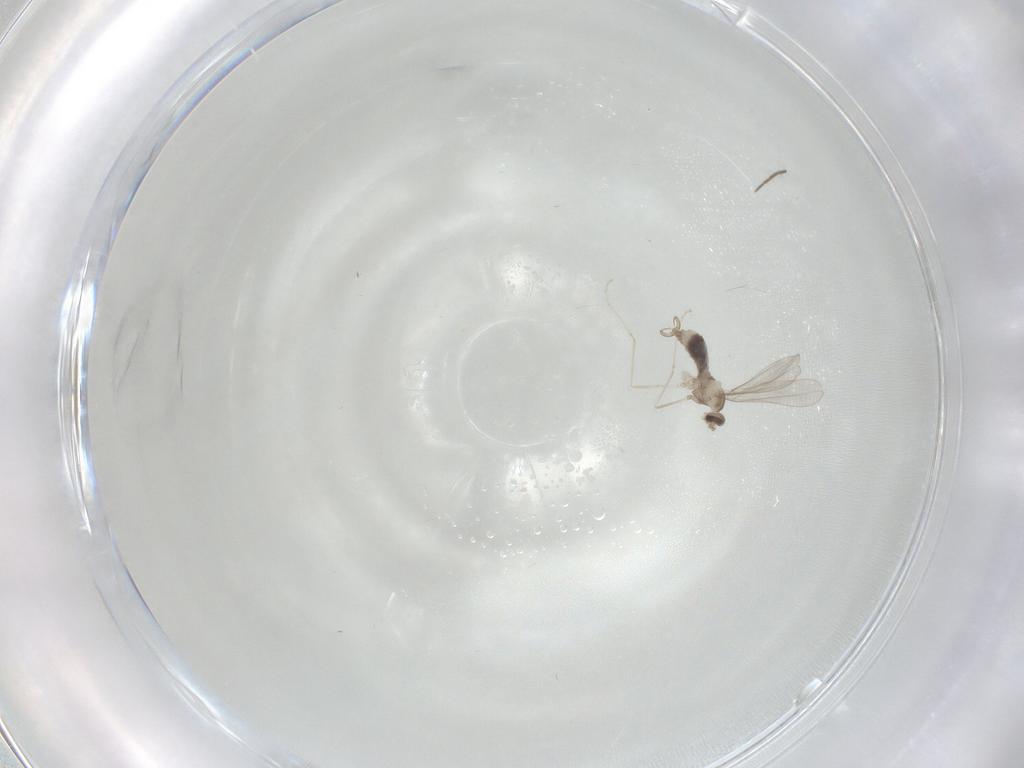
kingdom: Animalia
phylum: Arthropoda
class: Insecta
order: Diptera
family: Cecidomyiidae
